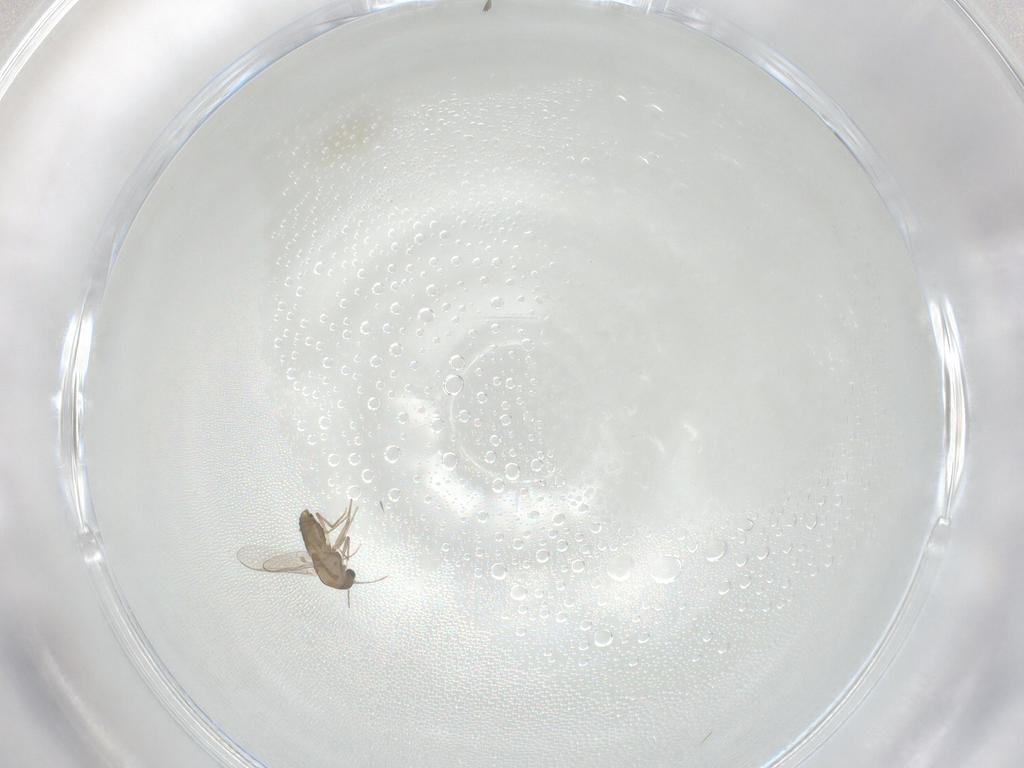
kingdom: Animalia
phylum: Arthropoda
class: Insecta
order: Diptera
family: Chironomidae
